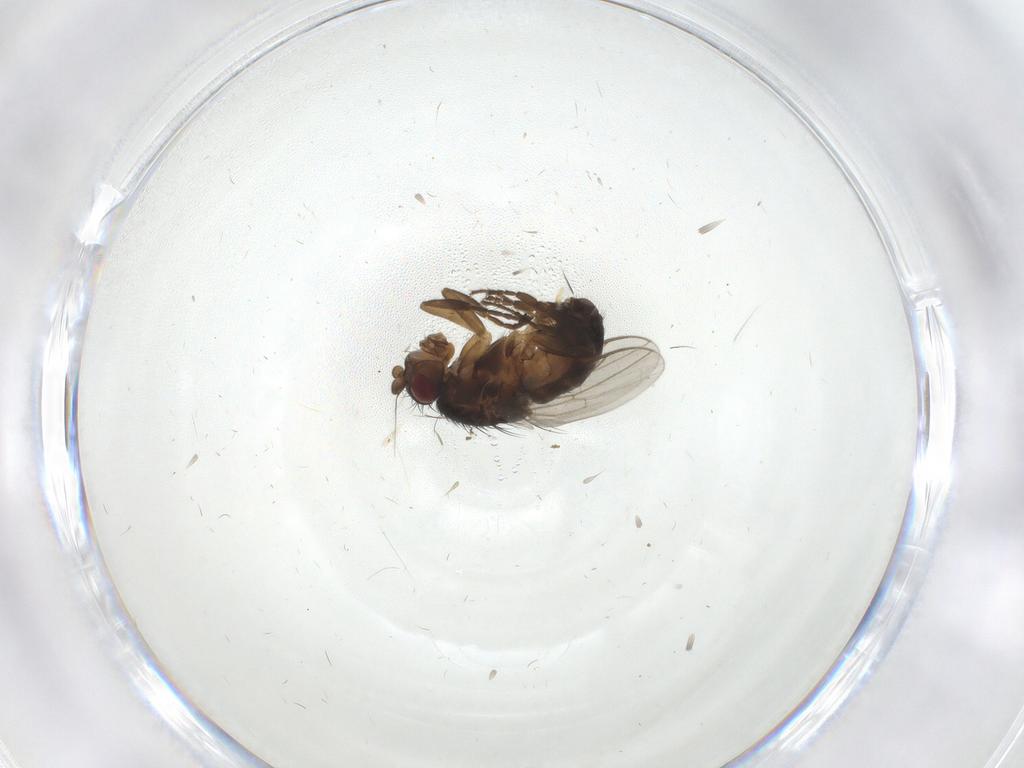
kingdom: Animalia
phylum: Arthropoda
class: Insecta
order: Diptera
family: Sphaeroceridae
